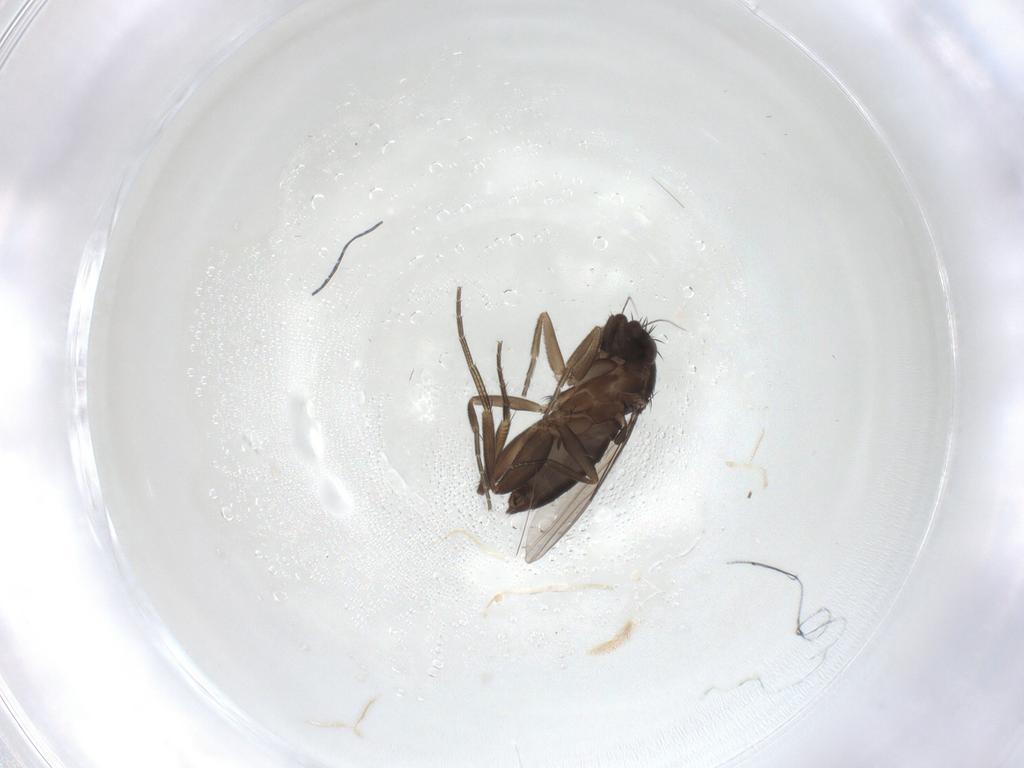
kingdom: Animalia
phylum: Arthropoda
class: Insecta
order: Diptera
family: Phoridae
